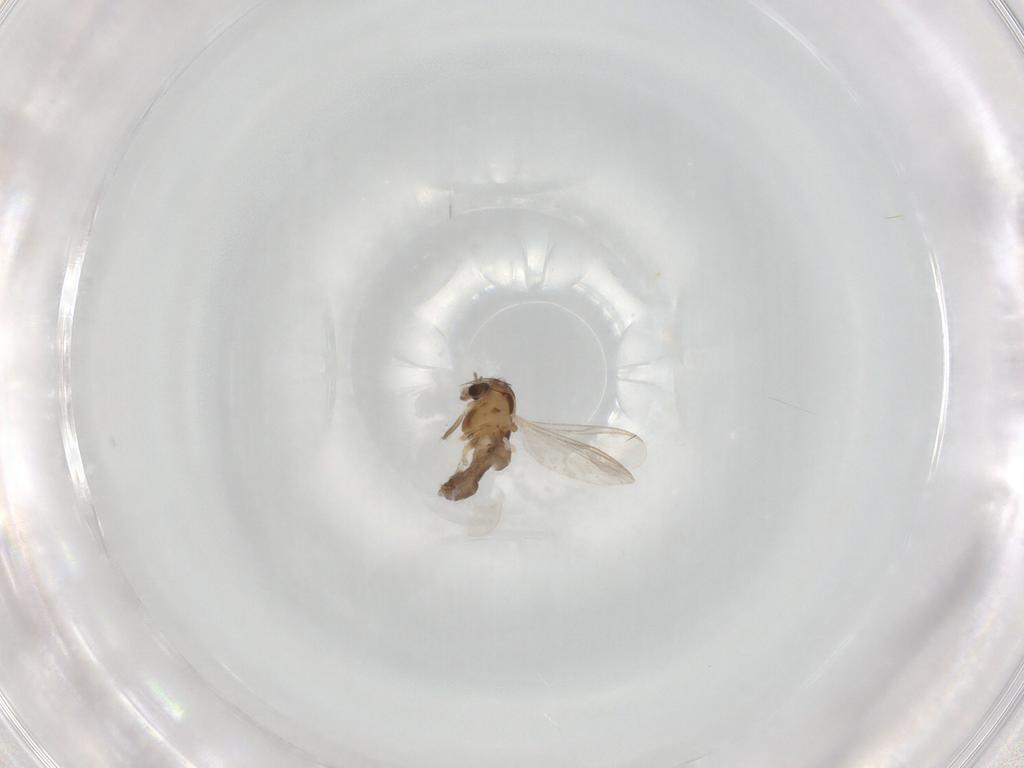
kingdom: Animalia
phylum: Arthropoda
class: Insecta
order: Diptera
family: Chironomidae
